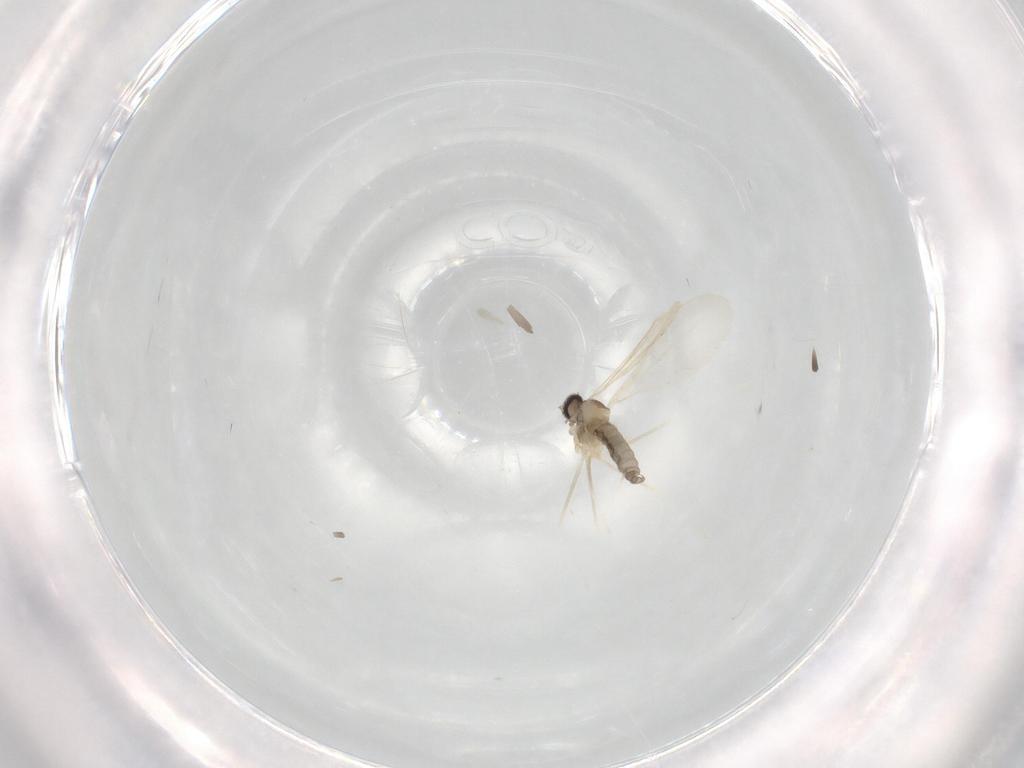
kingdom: Animalia
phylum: Arthropoda
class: Insecta
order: Diptera
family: Cecidomyiidae
